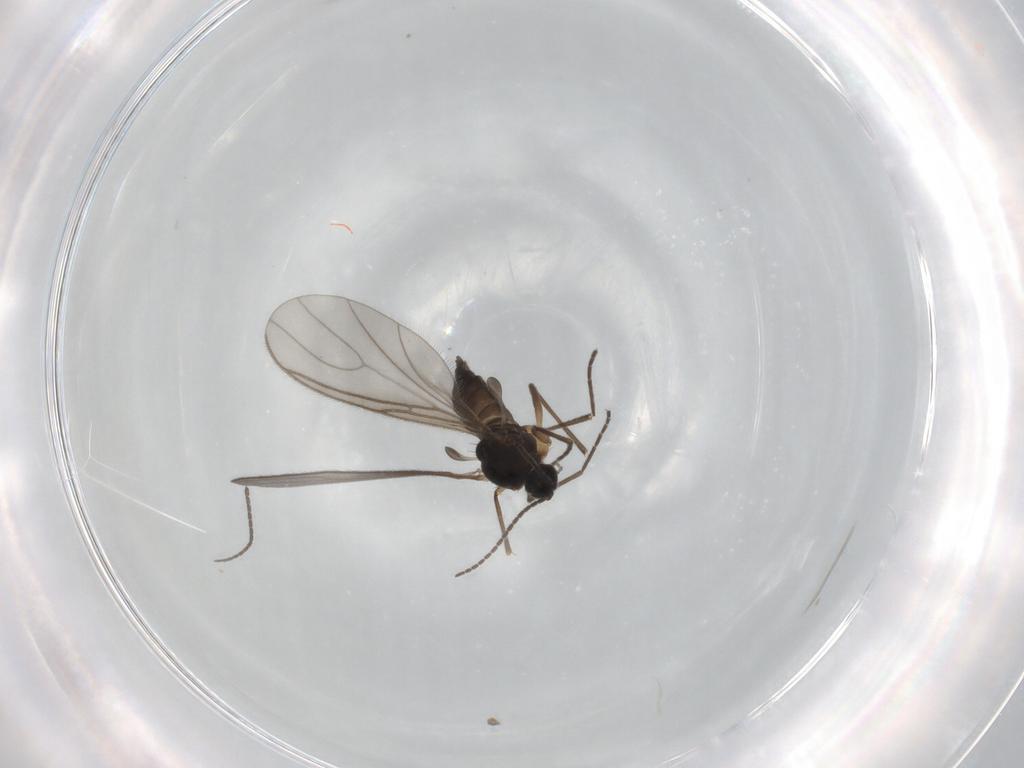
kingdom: Animalia
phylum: Arthropoda
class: Insecta
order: Diptera
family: Sciaridae
